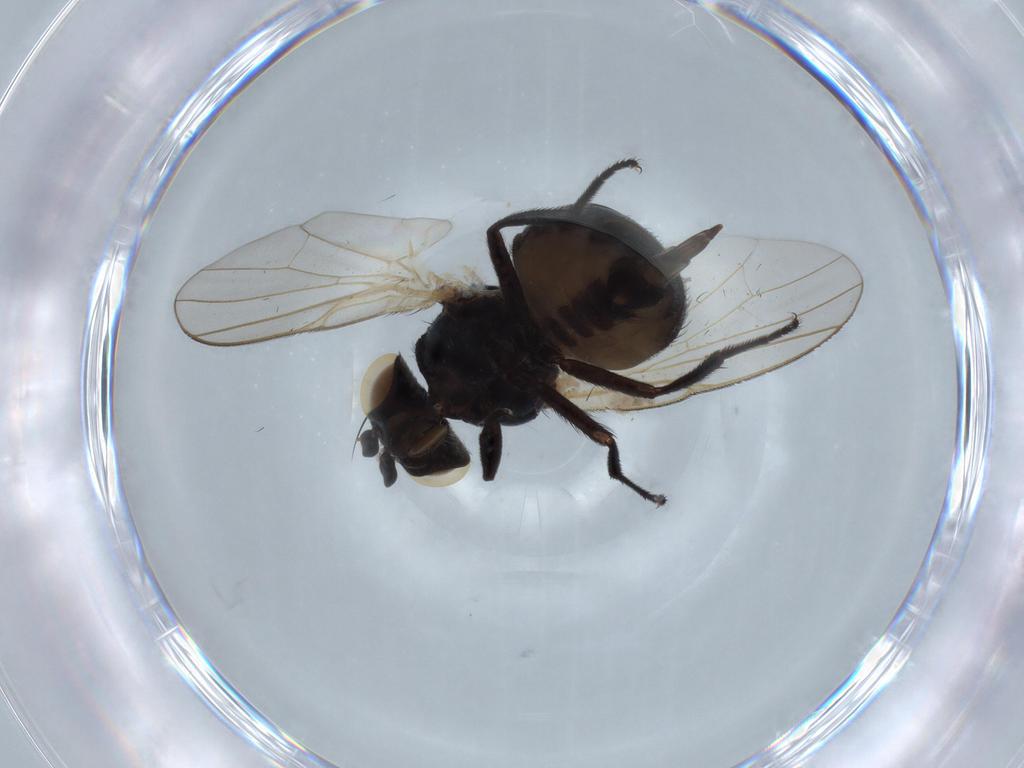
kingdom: Animalia
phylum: Arthropoda
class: Insecta
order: Diptera
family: Lonchaeidae
